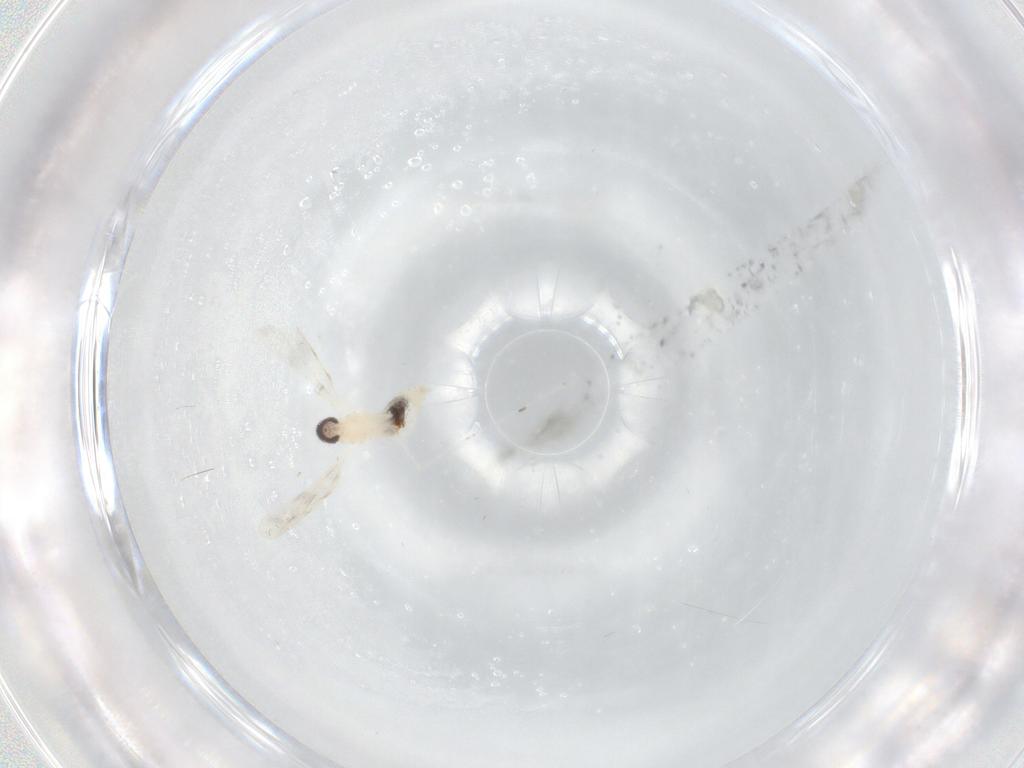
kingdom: Animalia
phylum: Arthropoda
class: Insecta
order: Diptera
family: Cecidomyiidae
